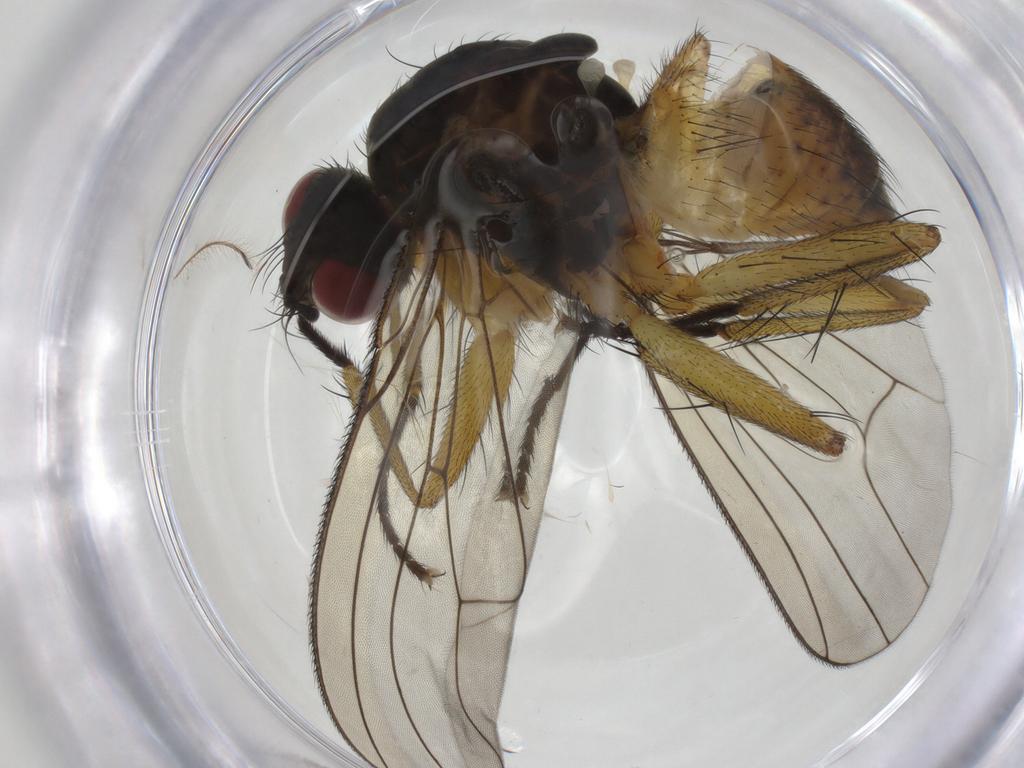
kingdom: Animalia
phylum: Arthropoda
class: Insecta
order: Diptera
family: Muscidae
